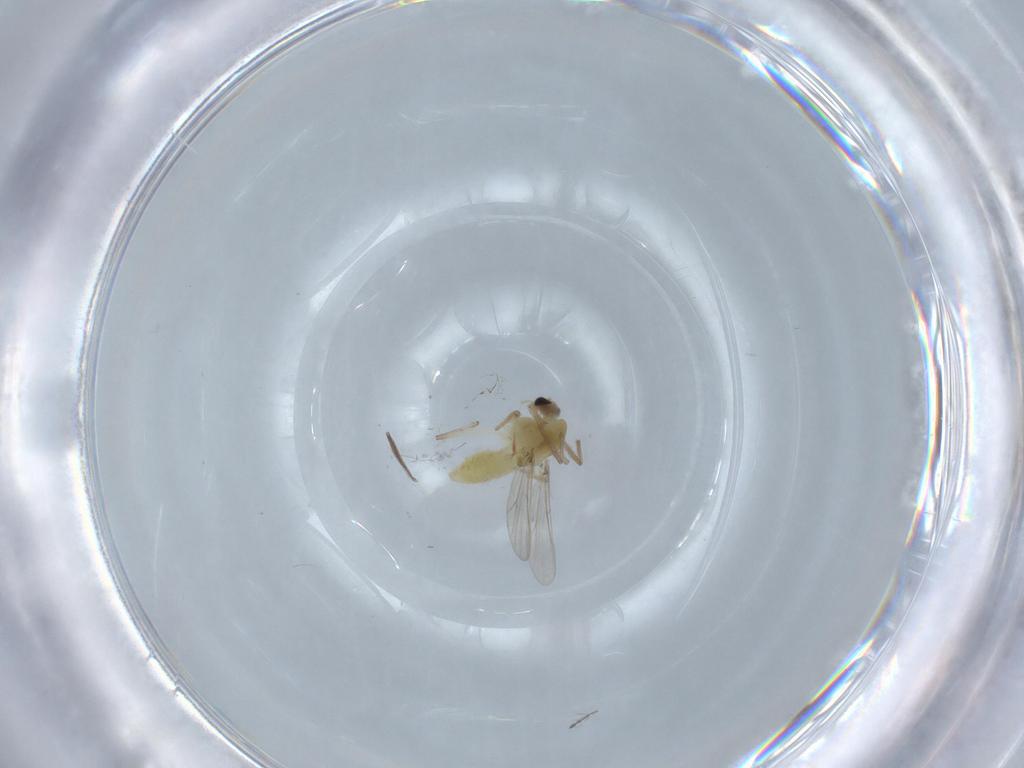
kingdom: Animalia
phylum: Arthropoda
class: Insecta
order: Diptera
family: Chironomidae
